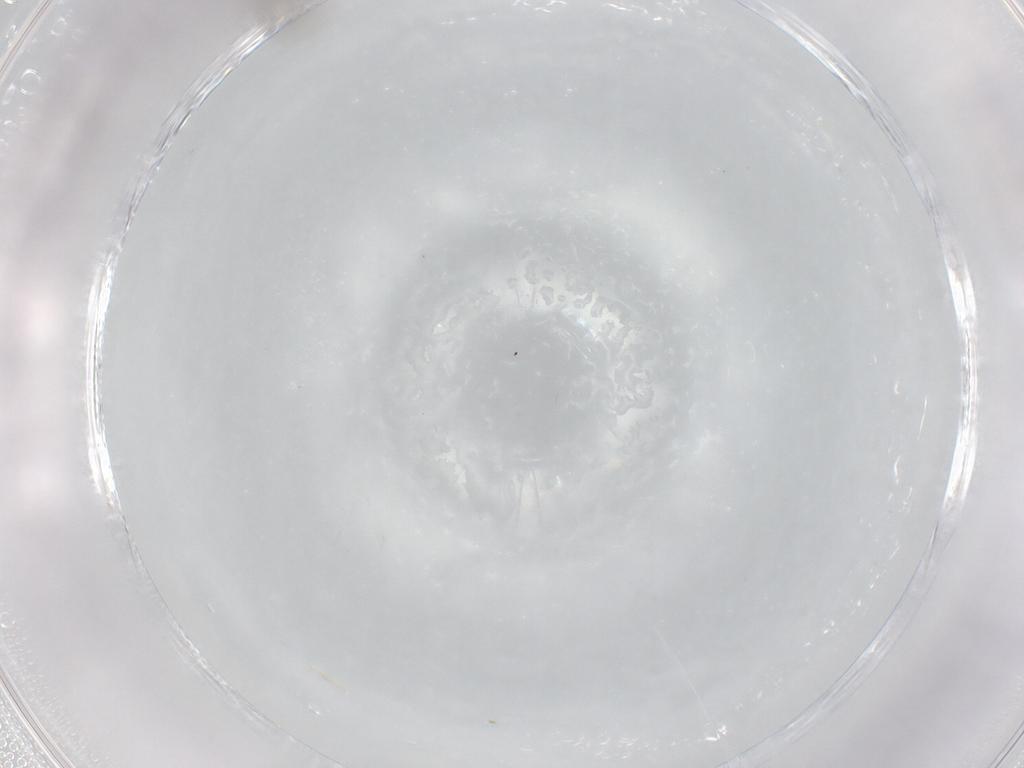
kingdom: Animalia
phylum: Arthropoda
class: Insecta
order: Diptera
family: Cecidomyiidae
